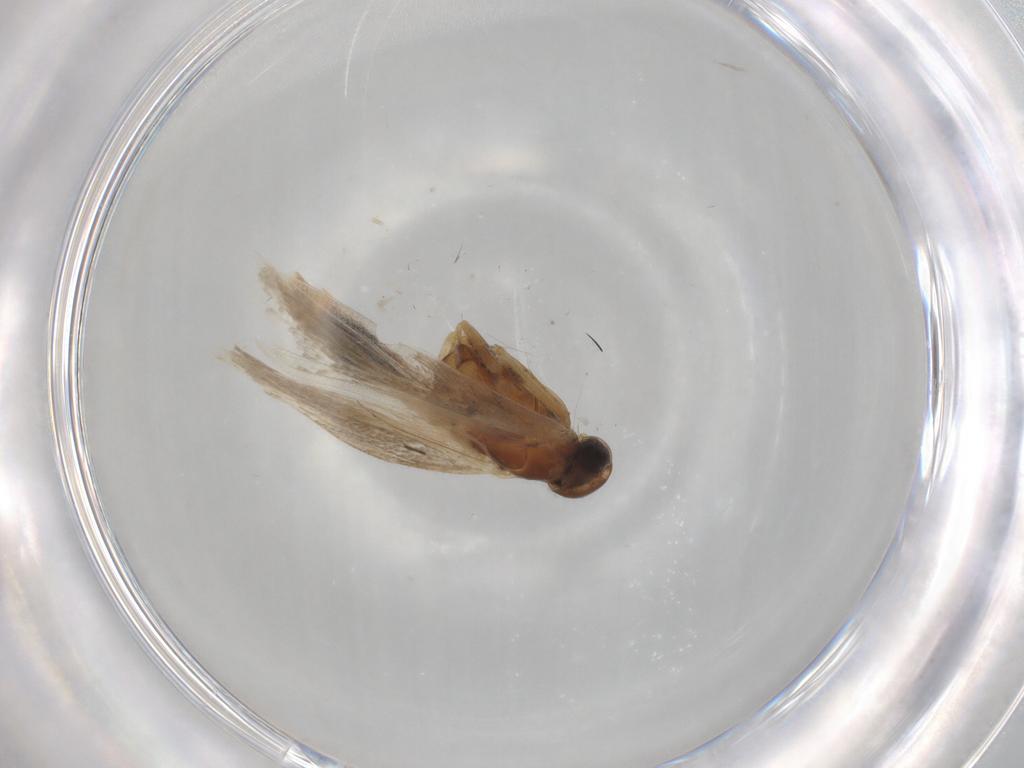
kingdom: Animalia
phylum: Arthropoda
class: Insecta
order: Lepidoptera
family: Gelechiidae
